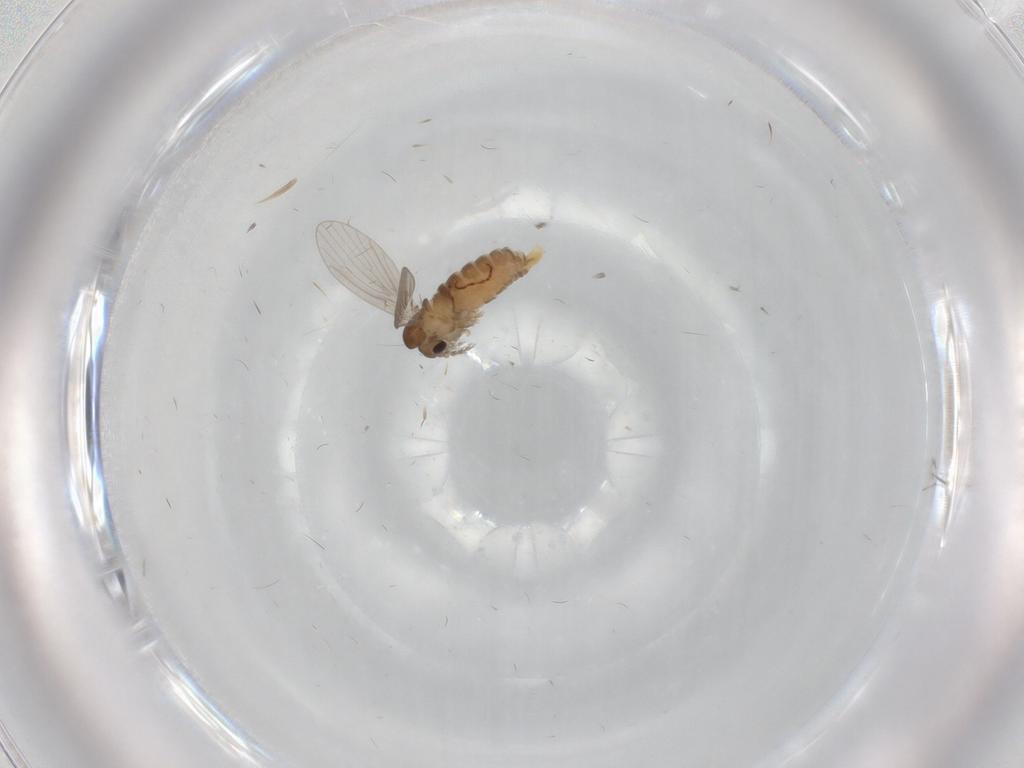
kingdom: Animalia
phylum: Arthropoda
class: Insecta
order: Diptera
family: Psychodidae
